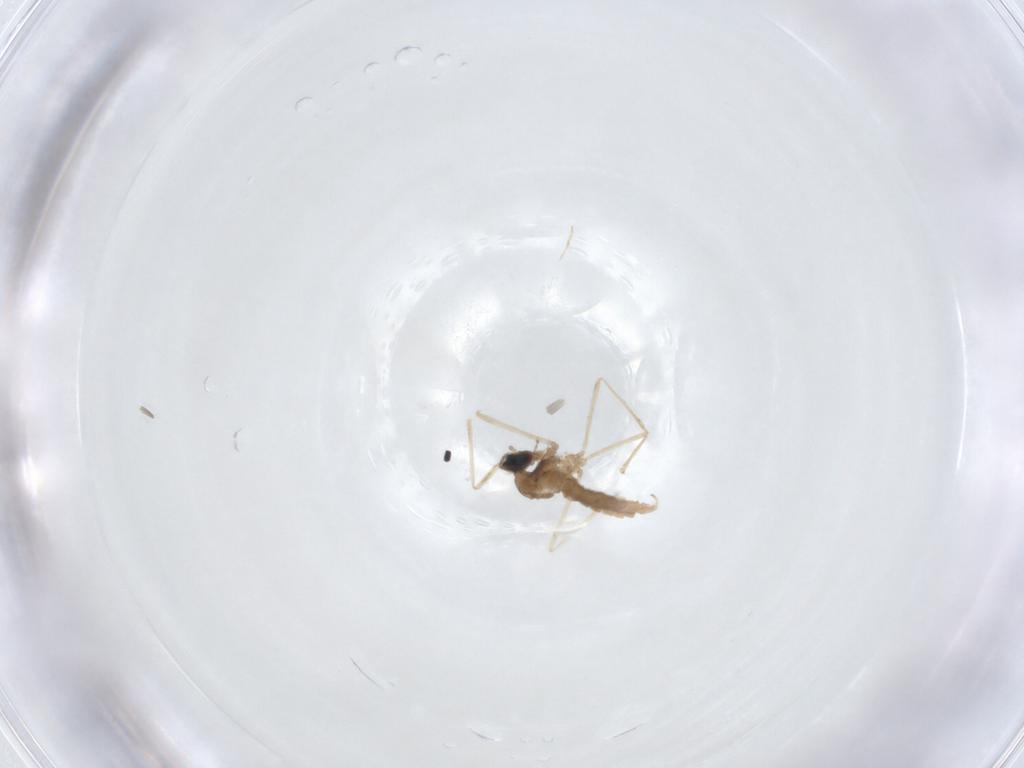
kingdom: Animalia
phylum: Arthropoda
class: Insecta
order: Diptera
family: Cecidomyiidae
